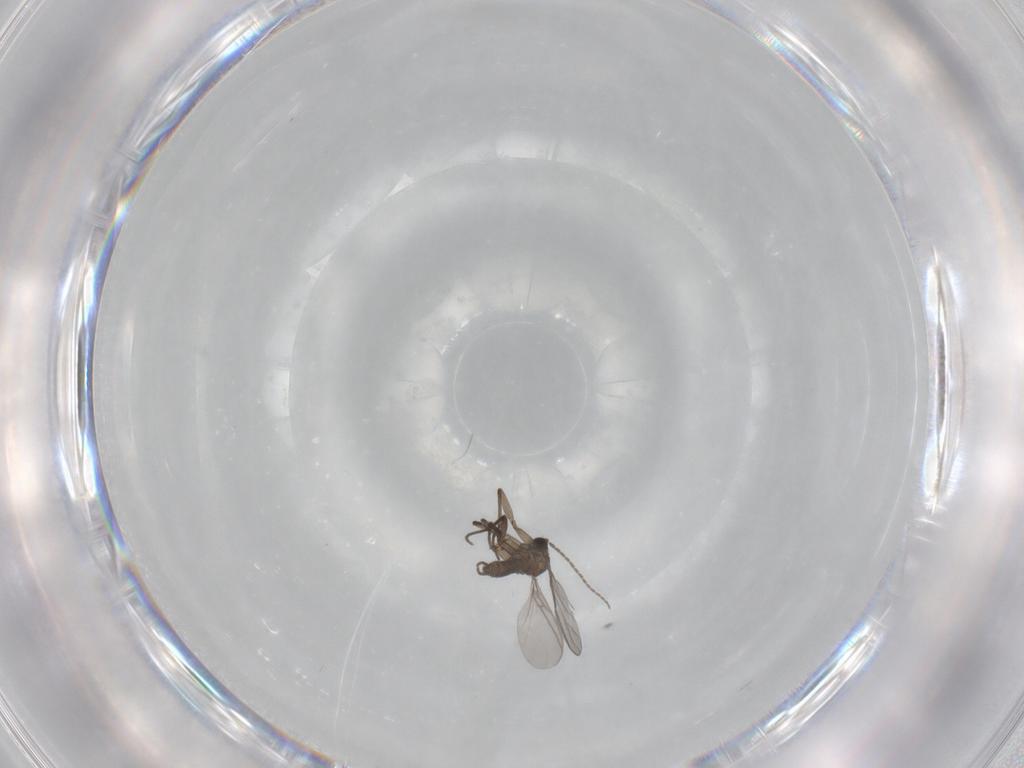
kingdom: Animalia
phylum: Arthropoda
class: Insecta
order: Diptera
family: Sciaridae
